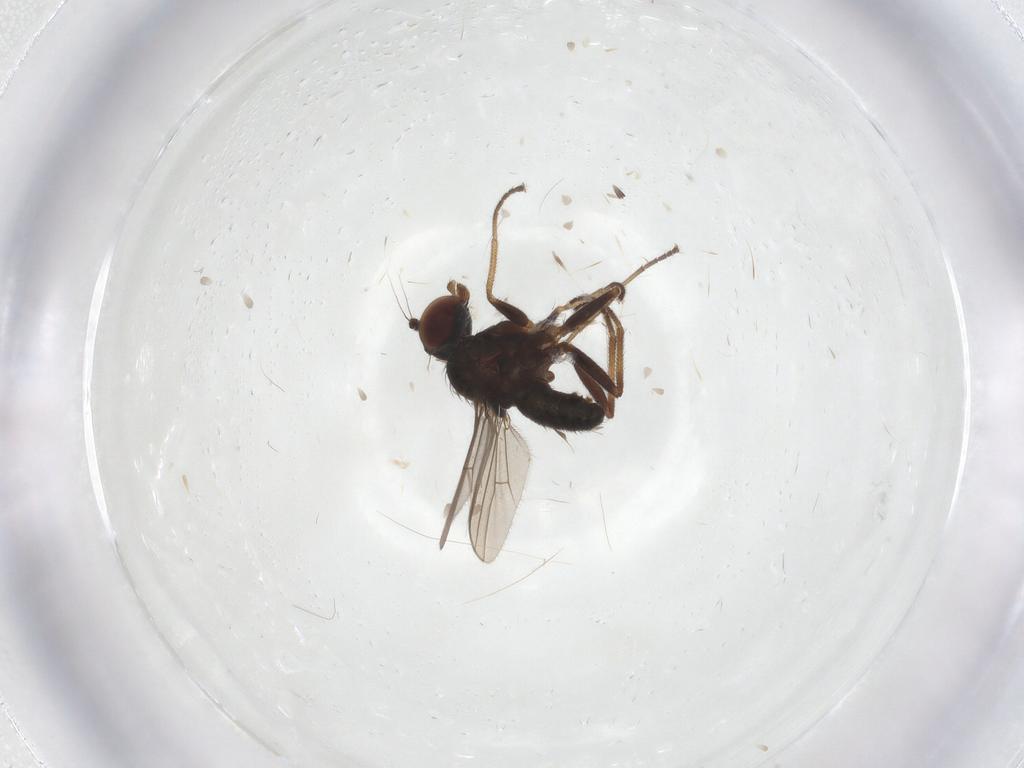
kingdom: Animalia
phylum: Arthropoda
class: Insecta
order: Diptera
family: Dolichopodidae
